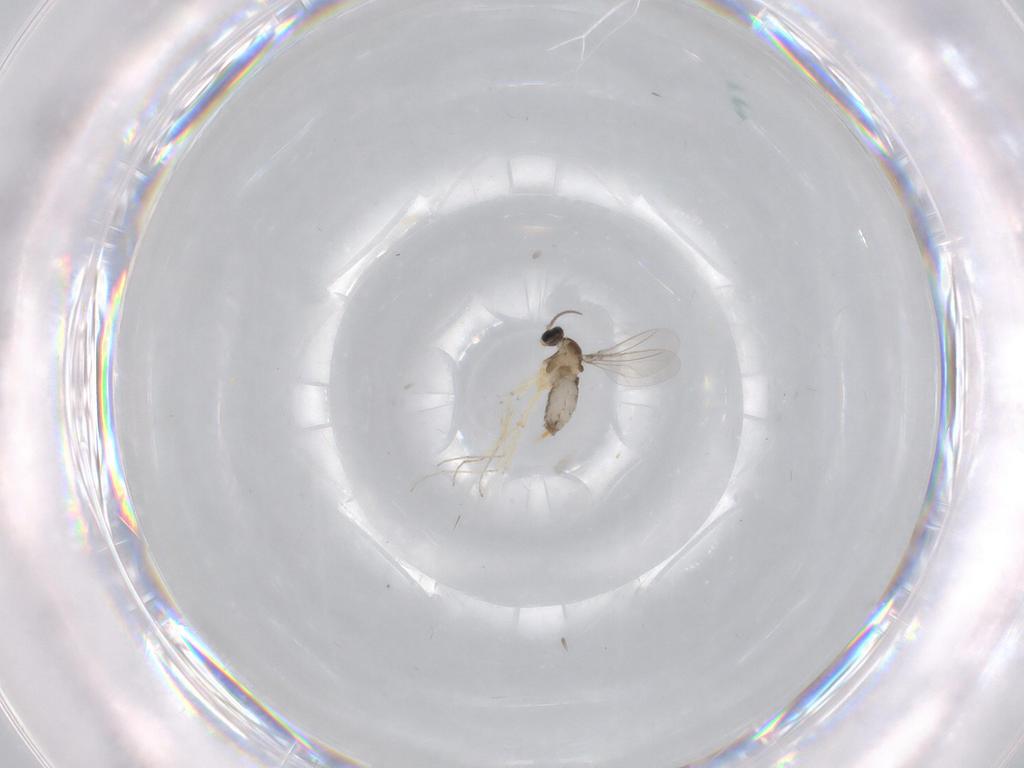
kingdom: Animalia
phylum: Arthropoda
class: Insecta
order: Diptera
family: Cecidomyiidae
